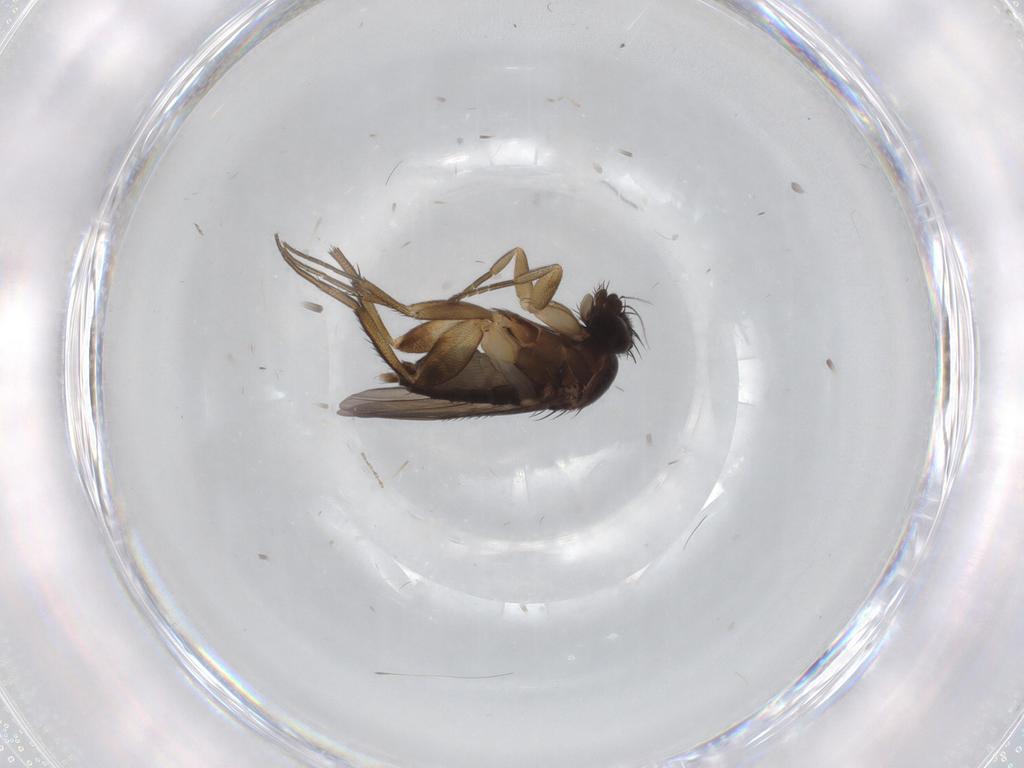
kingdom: Animalia
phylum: Arthropoda
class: Insecta
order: Diptera
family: Phoridae
